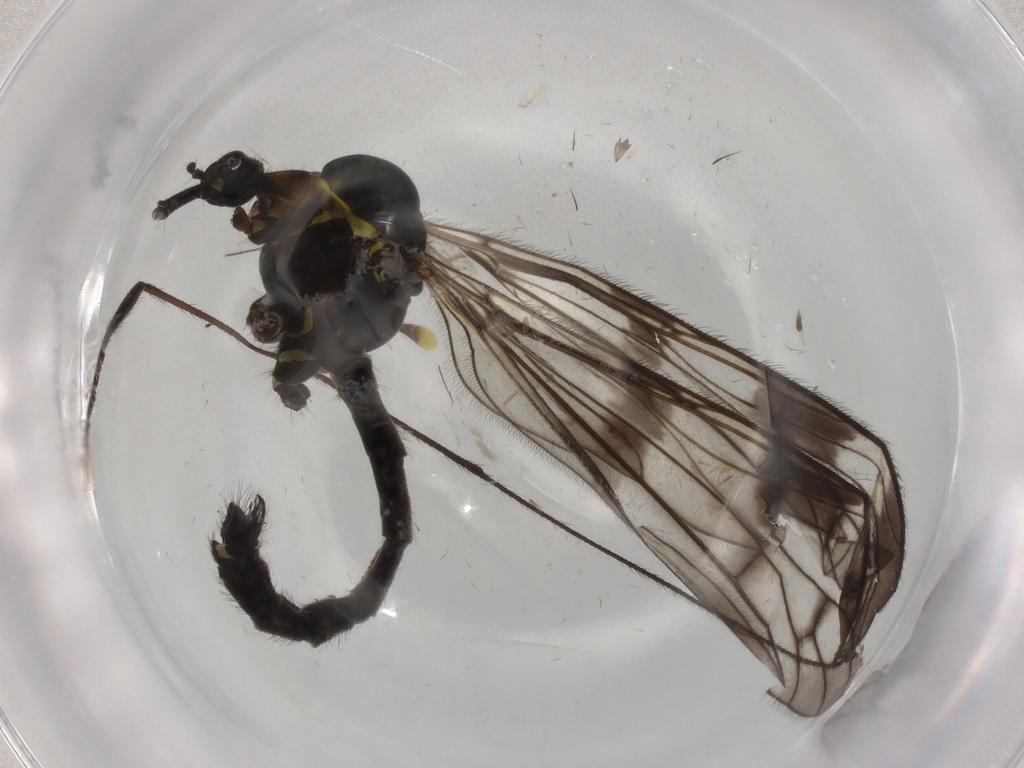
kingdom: Animalia
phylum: Arthropoda
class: Insecta
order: Diptera
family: Limoniidae
